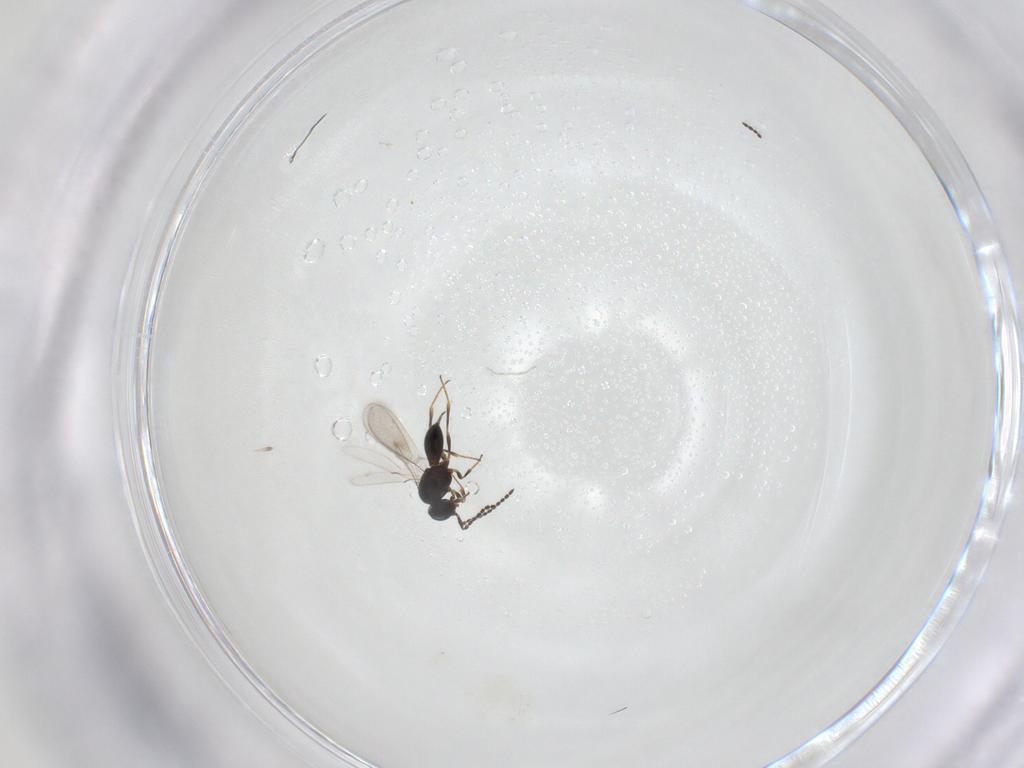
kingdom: Animalia
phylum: Arthropoda
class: Insecta
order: Hymenoptera
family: Scelionidae
